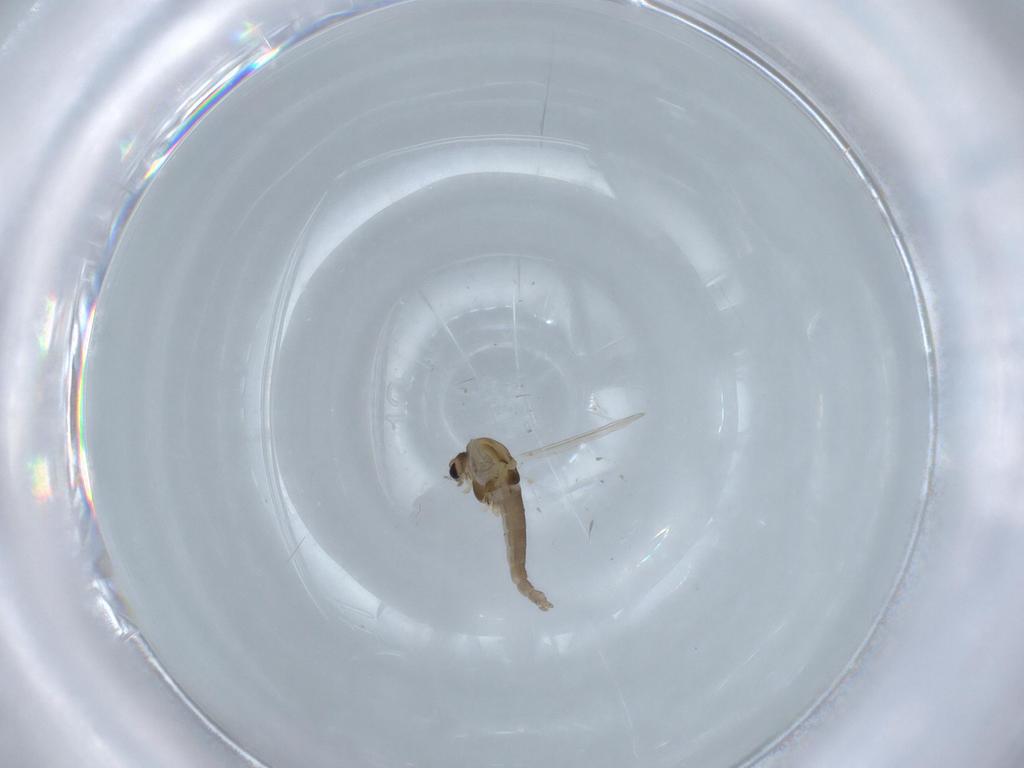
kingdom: Animalia
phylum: Arthropoda
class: Insecta
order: Diptera
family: Chironomidae
